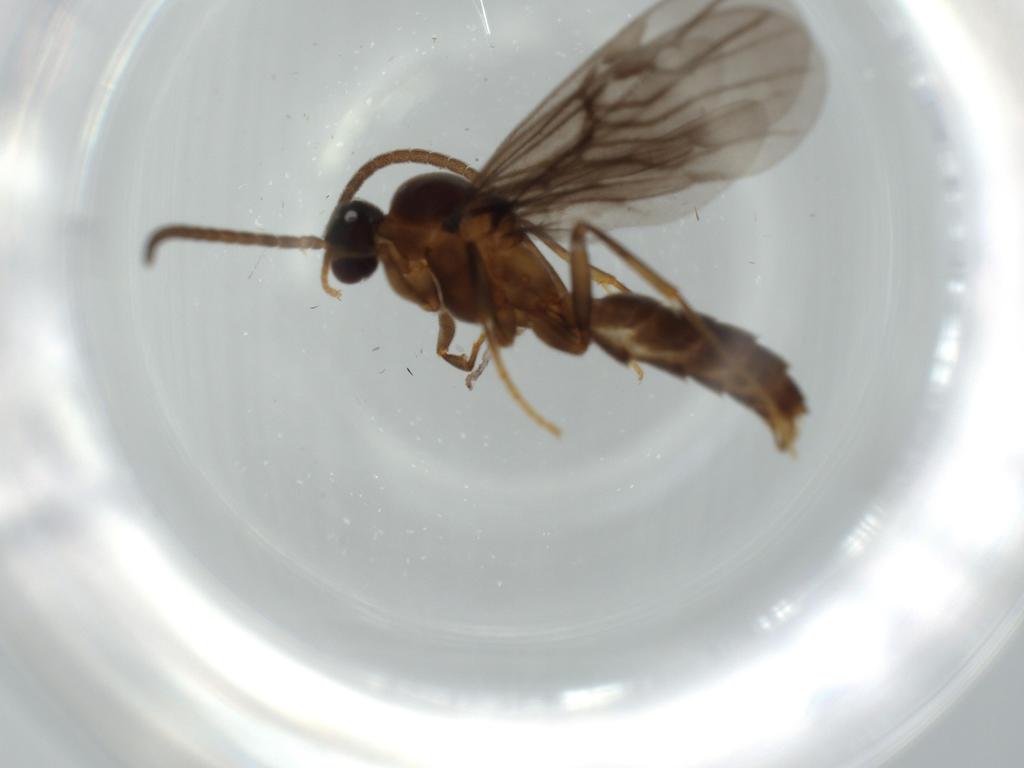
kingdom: Animalia
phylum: Arthropoda
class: Insecta
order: Hymenoptera
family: Formicidae
